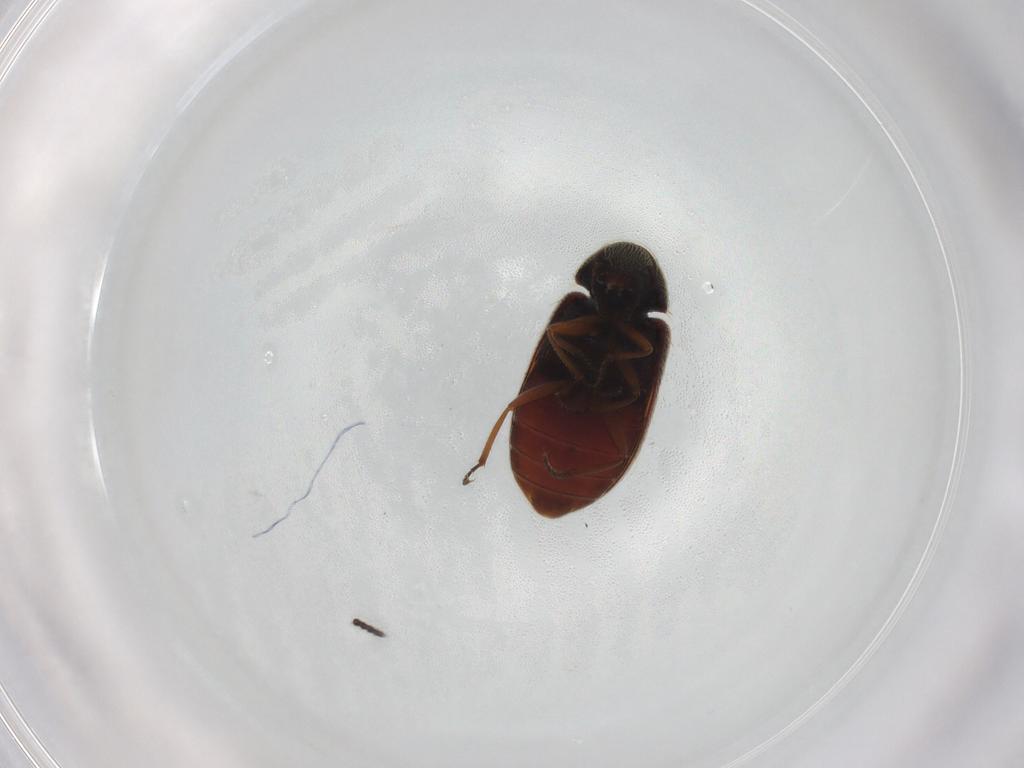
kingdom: Animalia
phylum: Arthropoda
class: Insecta
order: Coleoptera
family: Rhadalidae
